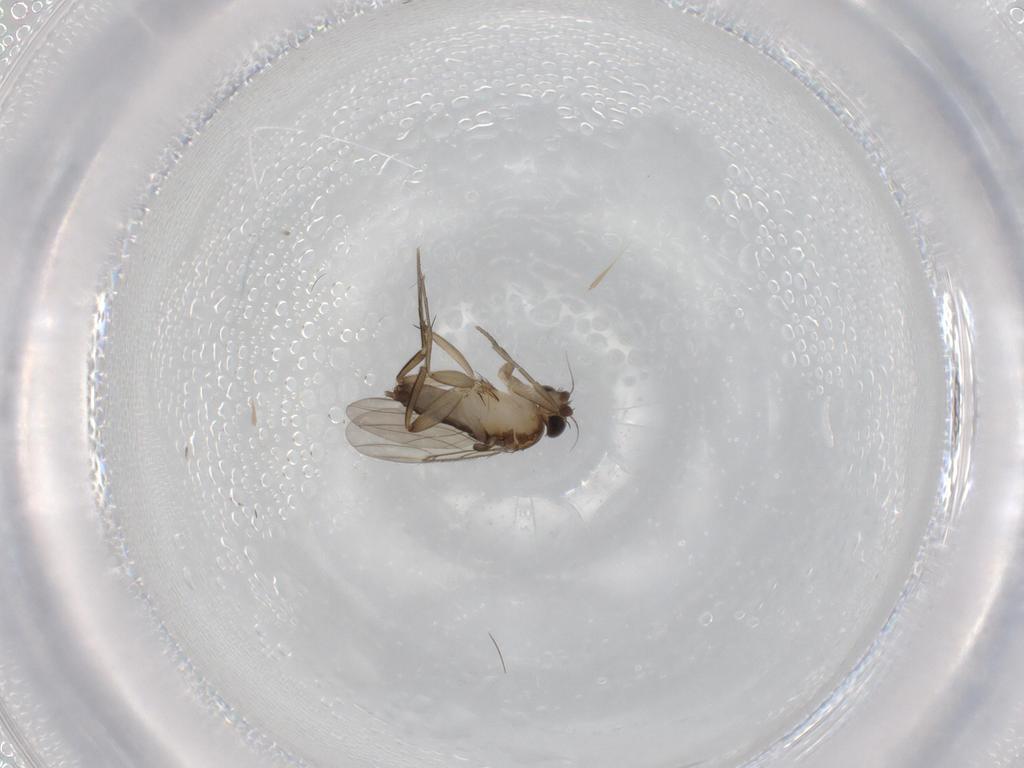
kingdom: Animalia
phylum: Arthropoda
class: Insecta
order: Diptera
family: Phoridae
